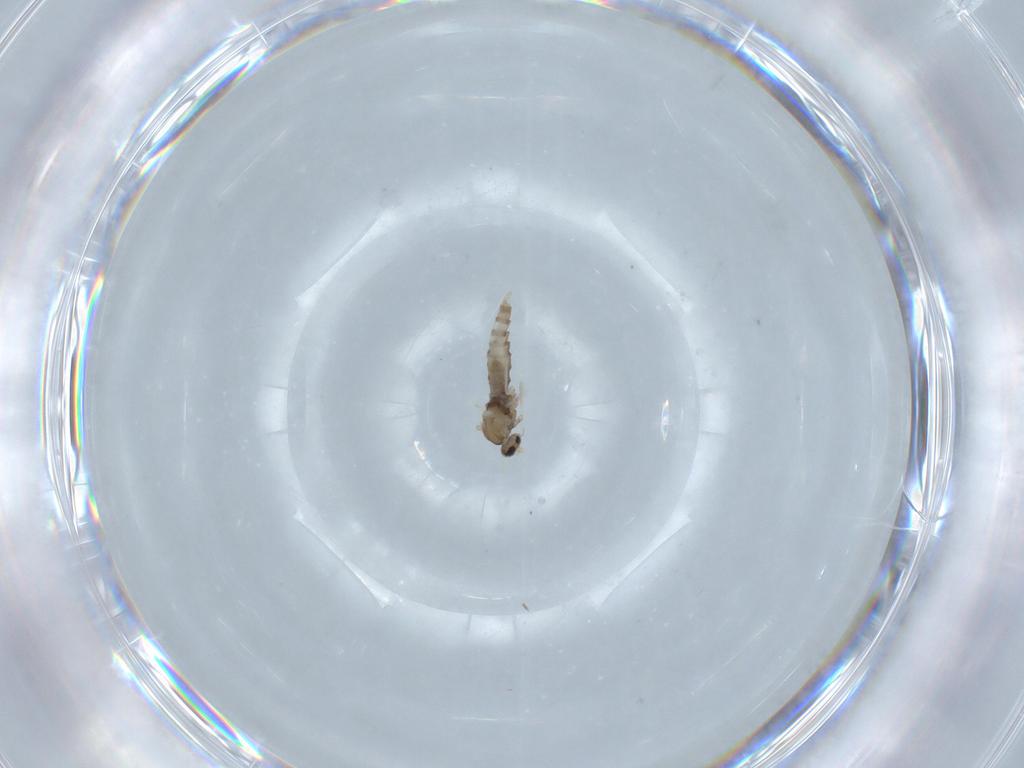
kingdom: Animalia
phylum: Arthropoda
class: Insecta
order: Diptera
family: Cecidomyiidae
